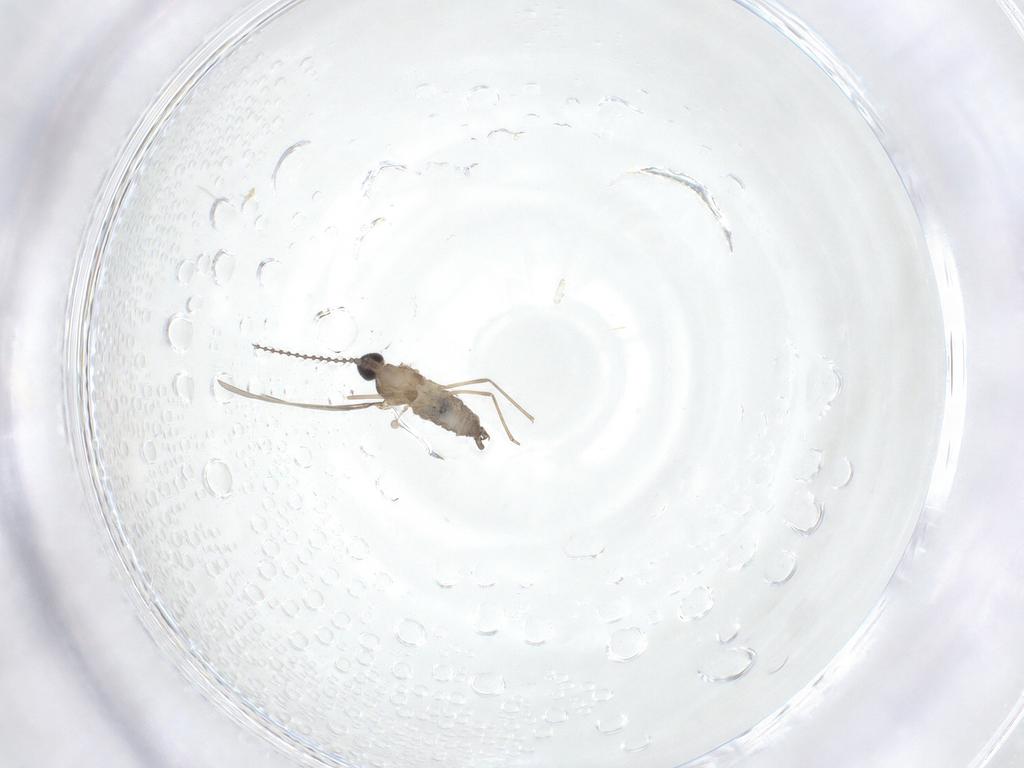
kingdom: Animalia
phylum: Arthropoda
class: Insecta
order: Diptera
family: Cecidomyiidae
